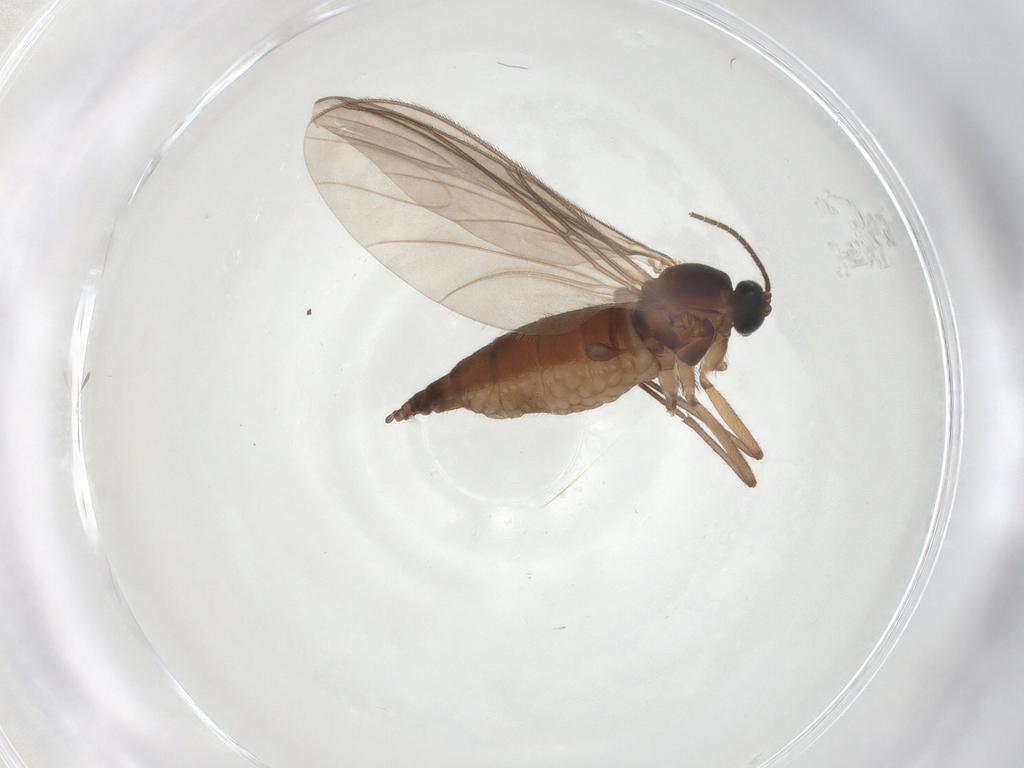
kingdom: Animalia
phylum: Arthropoda
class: Insecta
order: Diptera
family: Sciaridae
